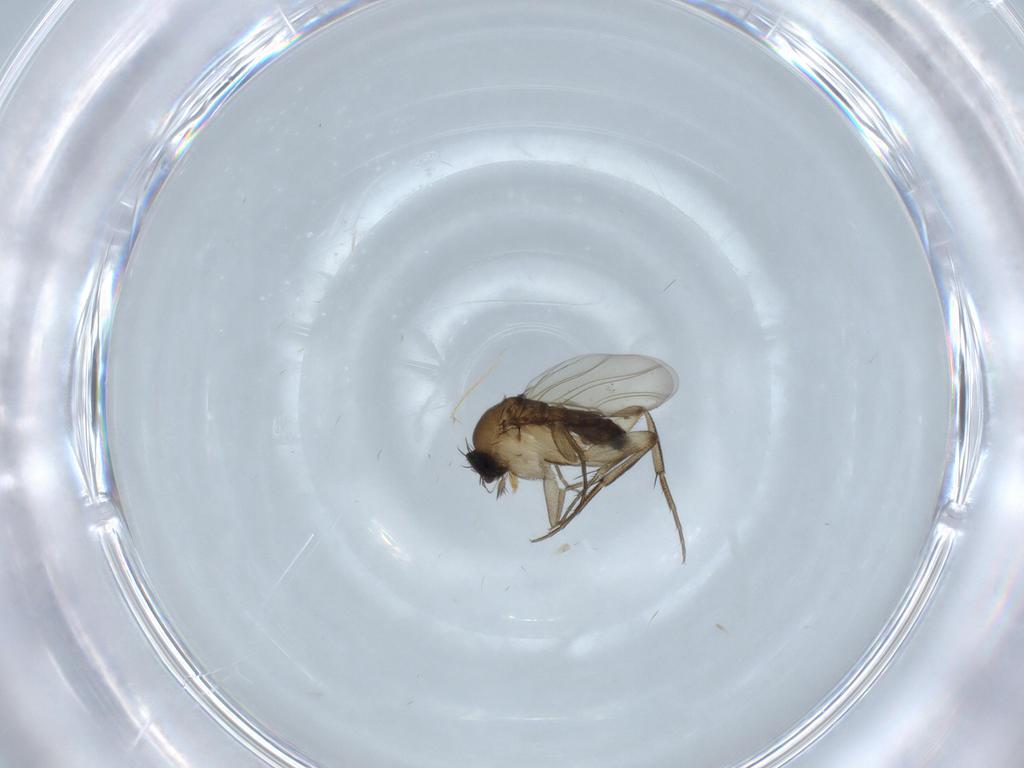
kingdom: Animalia
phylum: Arthropoda
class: Insecta
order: Diptera
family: Phoridae
